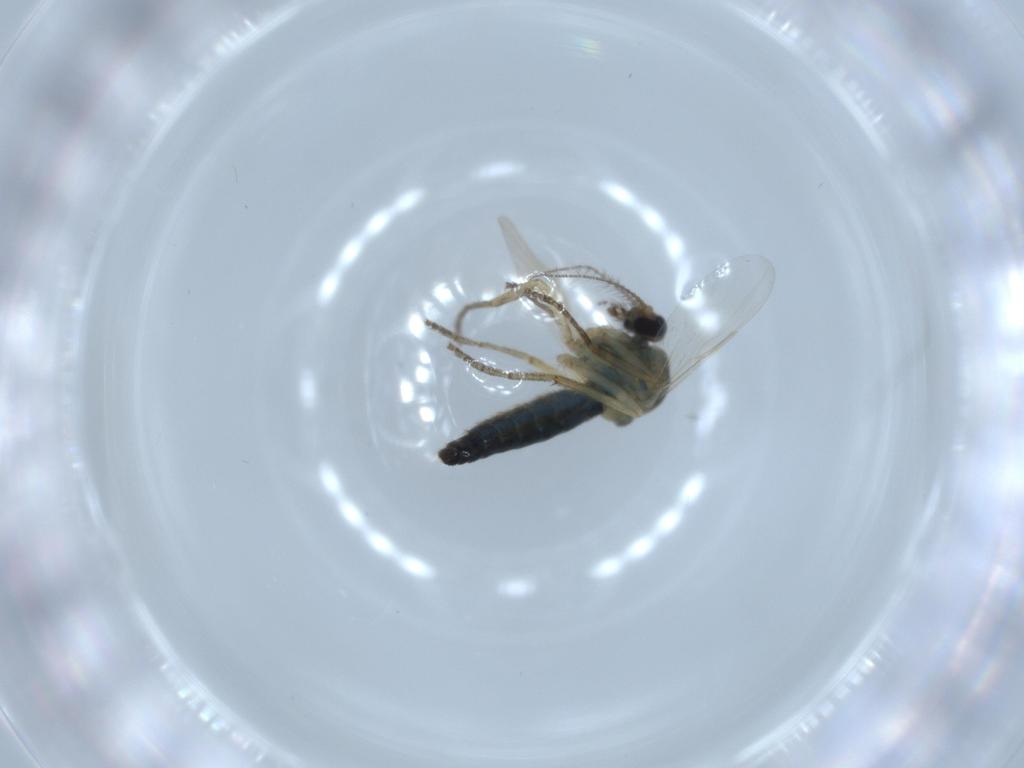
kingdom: Animalia
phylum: Arthropoda
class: Insecta
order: Diptera
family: Ceratopogonidae
